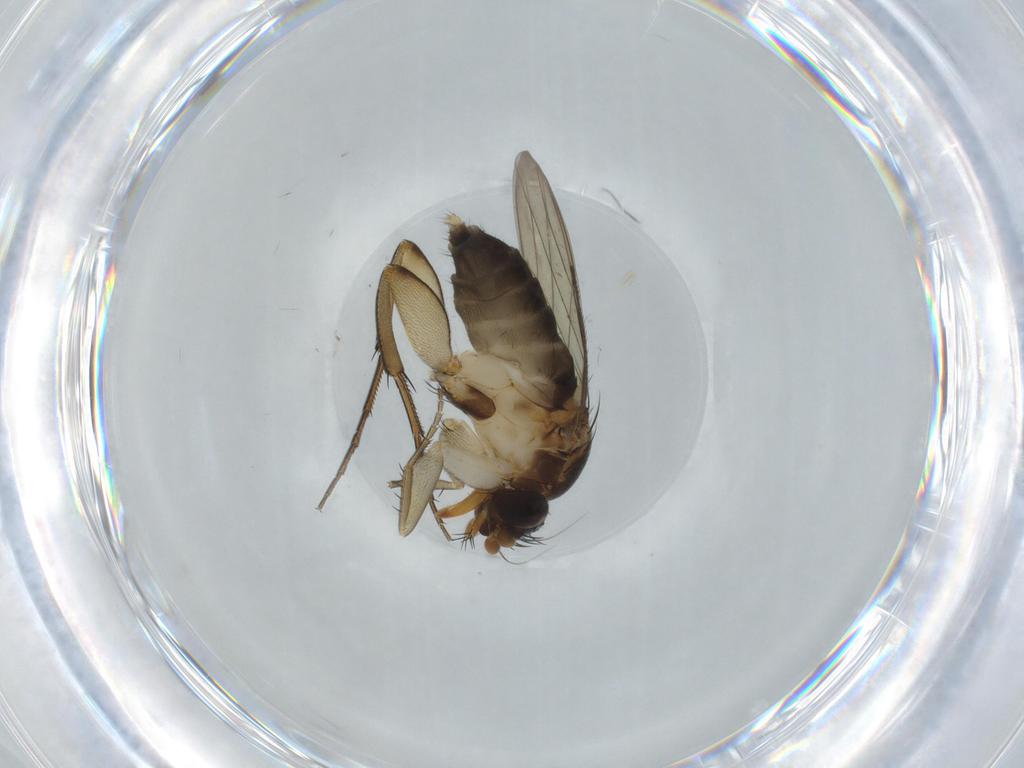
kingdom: Animalia
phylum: Arthropoda
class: Insecta
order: Diptera
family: Phoridae
